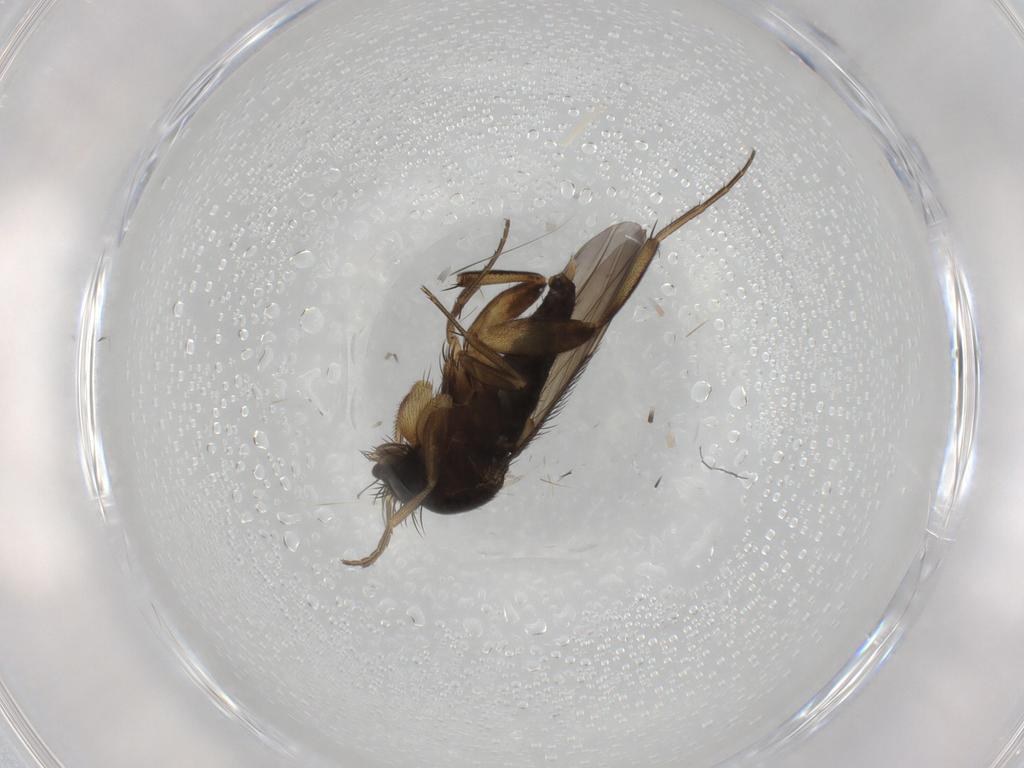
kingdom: Animalia
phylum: Arthropoda
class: Insecta
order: Diptera
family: Phoridae
